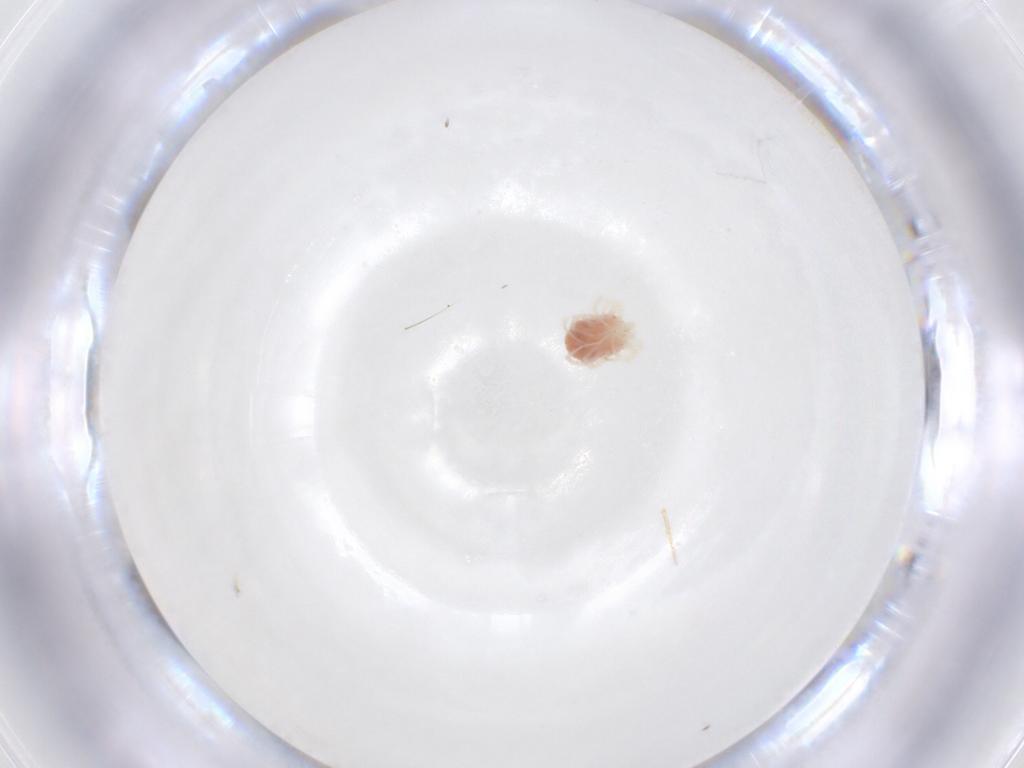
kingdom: Animalia
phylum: Arthropoda
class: Arachnida
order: Trombidiformes
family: Anystidae
